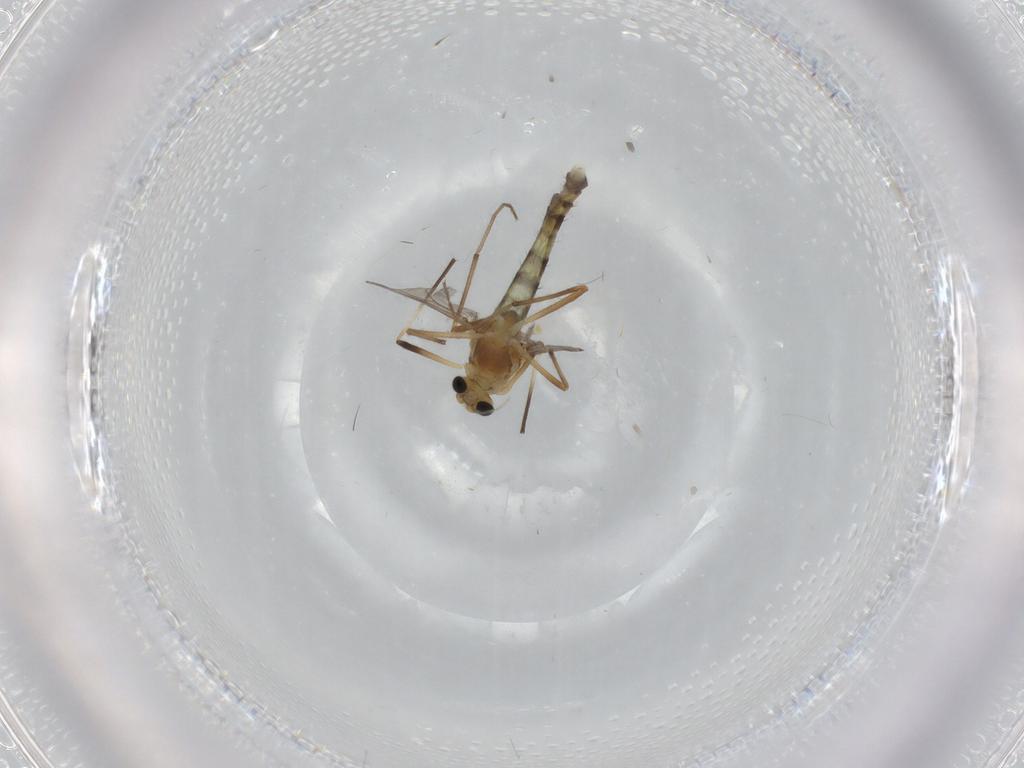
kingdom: Animalia
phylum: Arthropoda
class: Insecta
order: Diptera
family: Chironomidae
